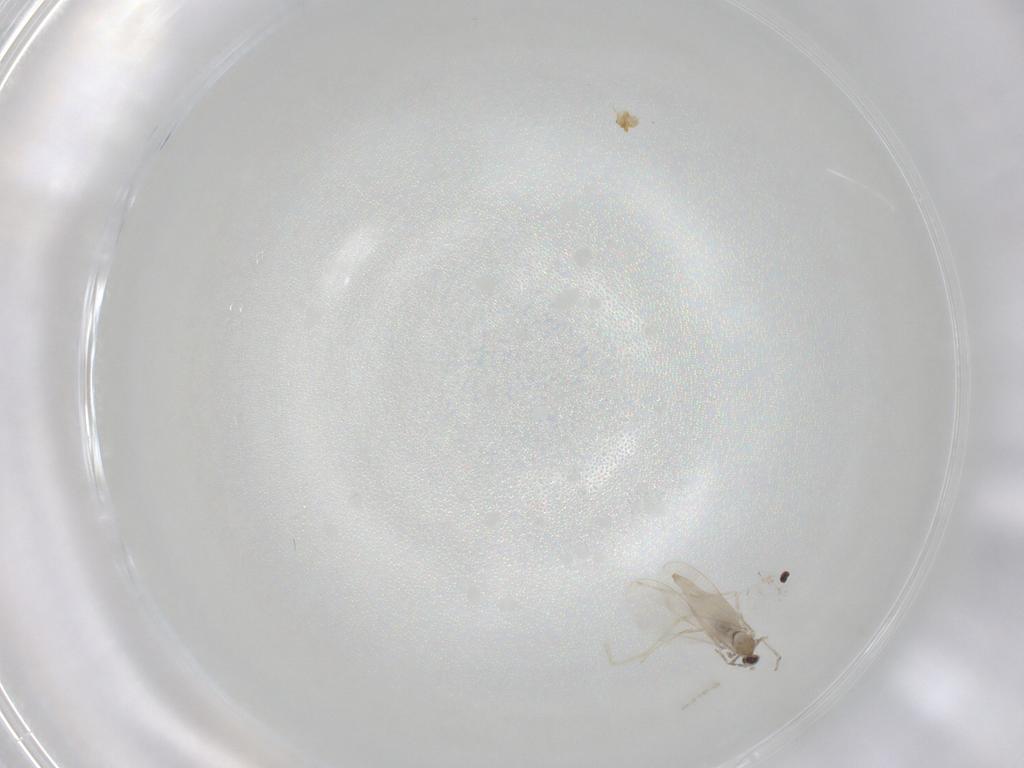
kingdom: Animalia
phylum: Arthropoda
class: Insecta
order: Diptera
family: Cecidomyiidae
